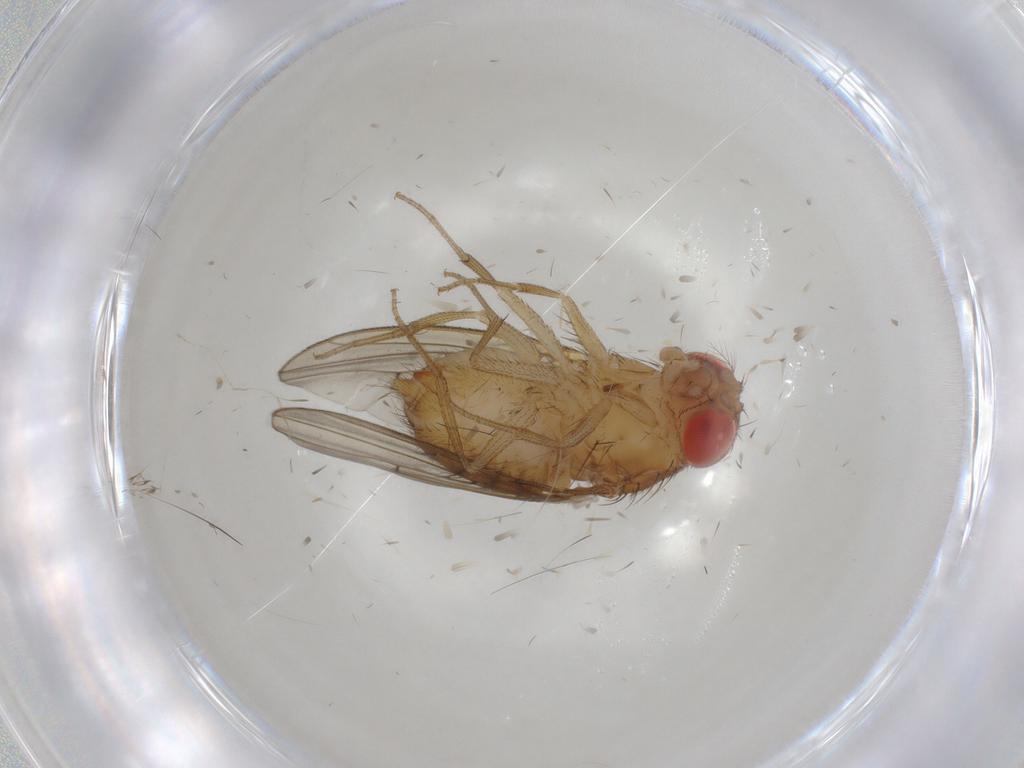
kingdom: Animalia
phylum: Arthropoda
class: Insecta
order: Diptera
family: Drosophilidae
